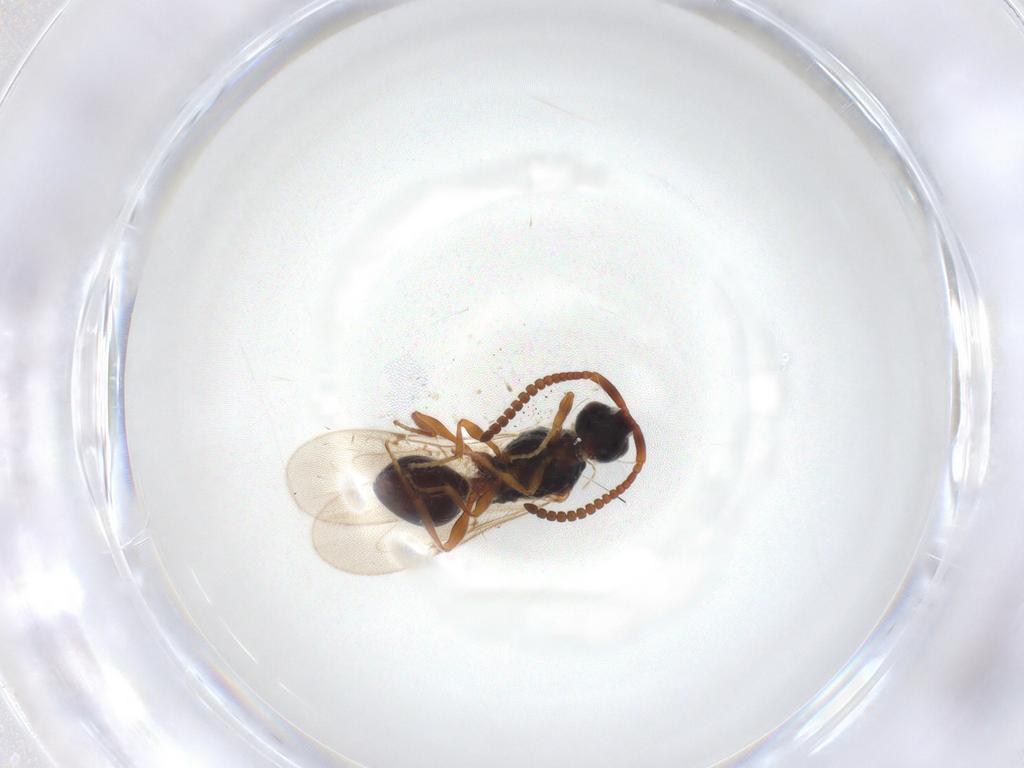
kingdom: Animalia
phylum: Arthropoda
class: Insecta
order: Hymenoptera
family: Diapriidae
